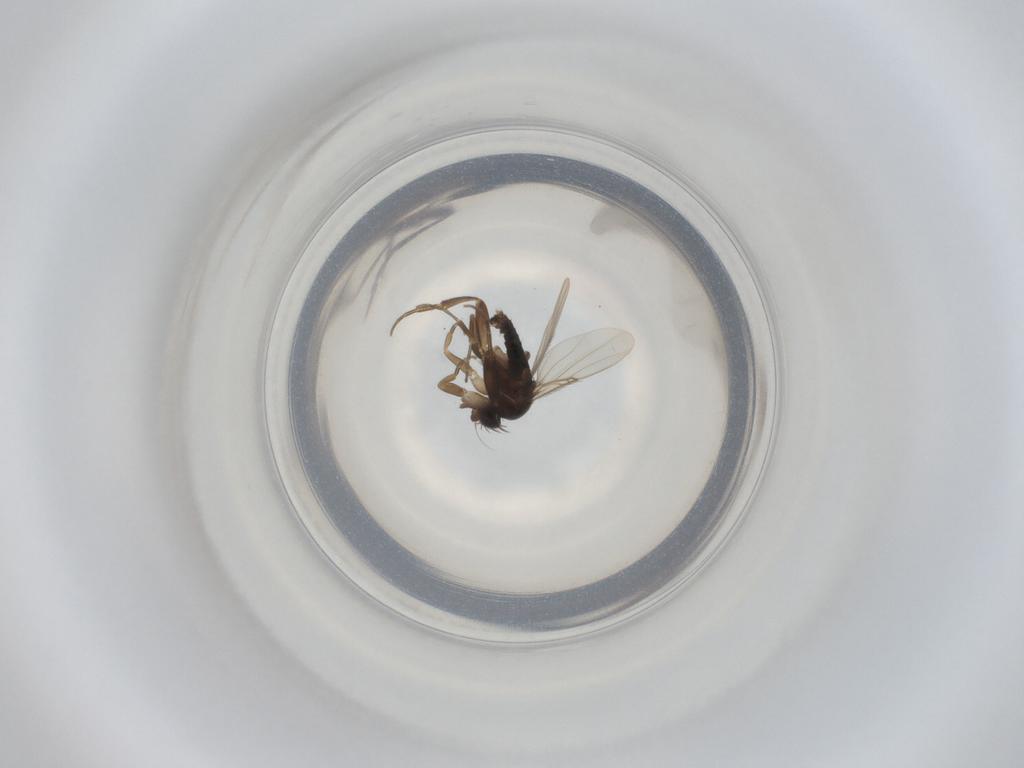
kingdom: Animalia
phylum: Arthropoda
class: Insecta
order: Diptera
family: Phoridae
